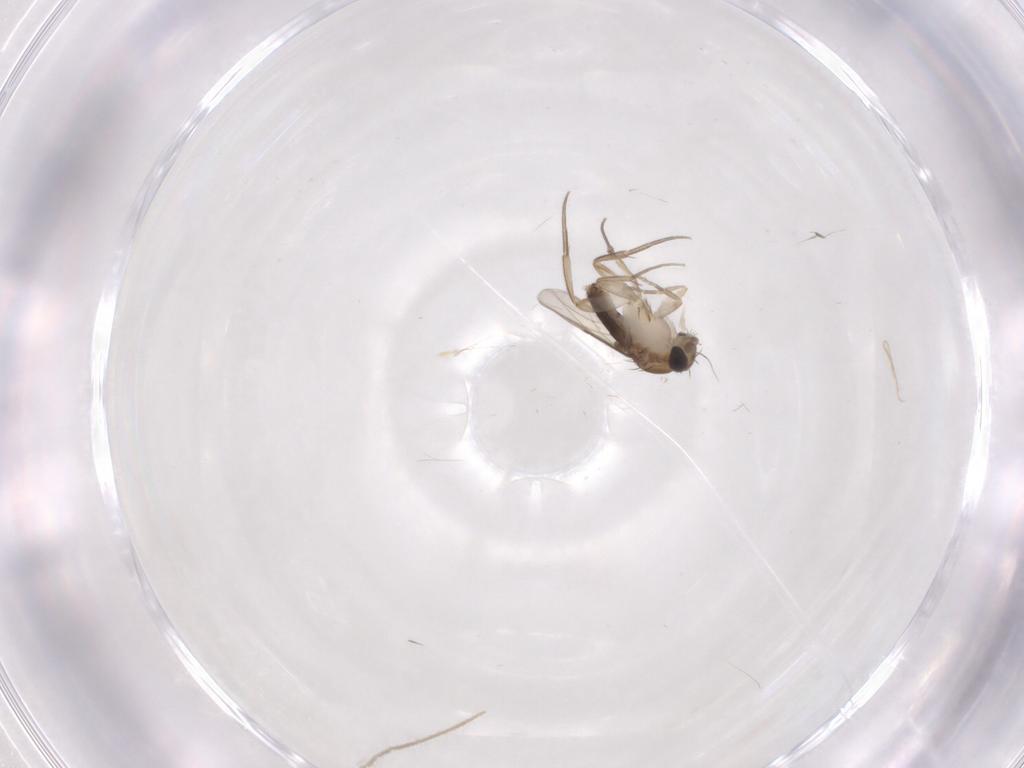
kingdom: Animalia
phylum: Arthropoda
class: Insecta
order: Diptera
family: Phoridae
